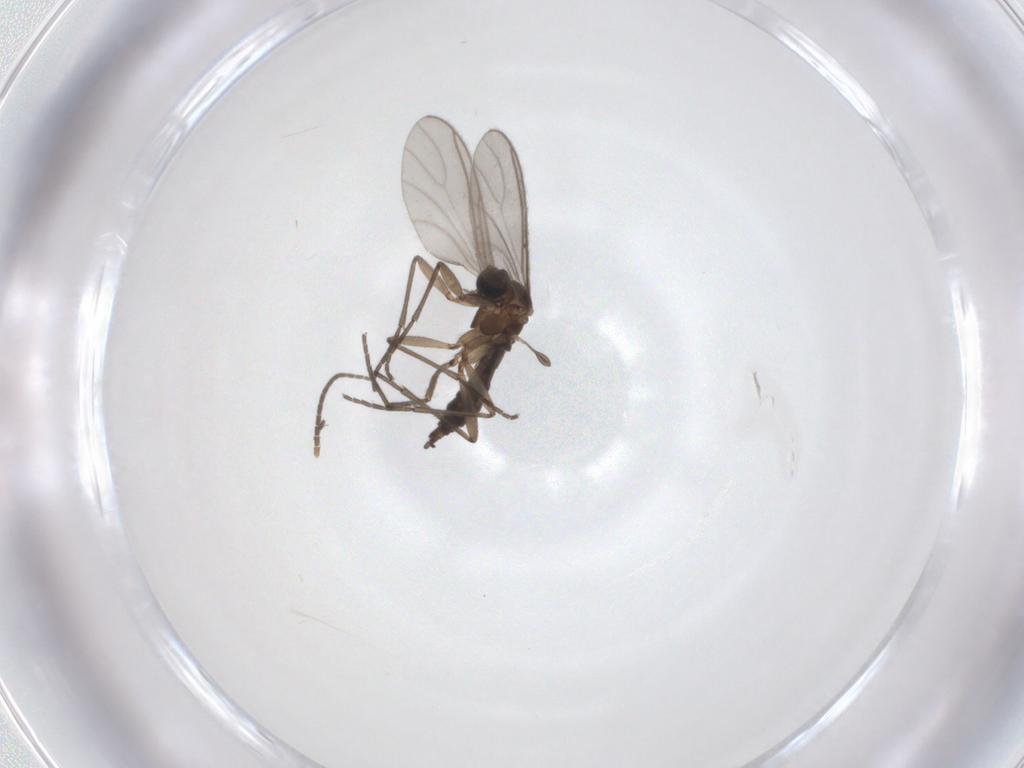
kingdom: Animalia
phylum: Arthropoda
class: Insecta
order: Diptera
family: Sciaridae
